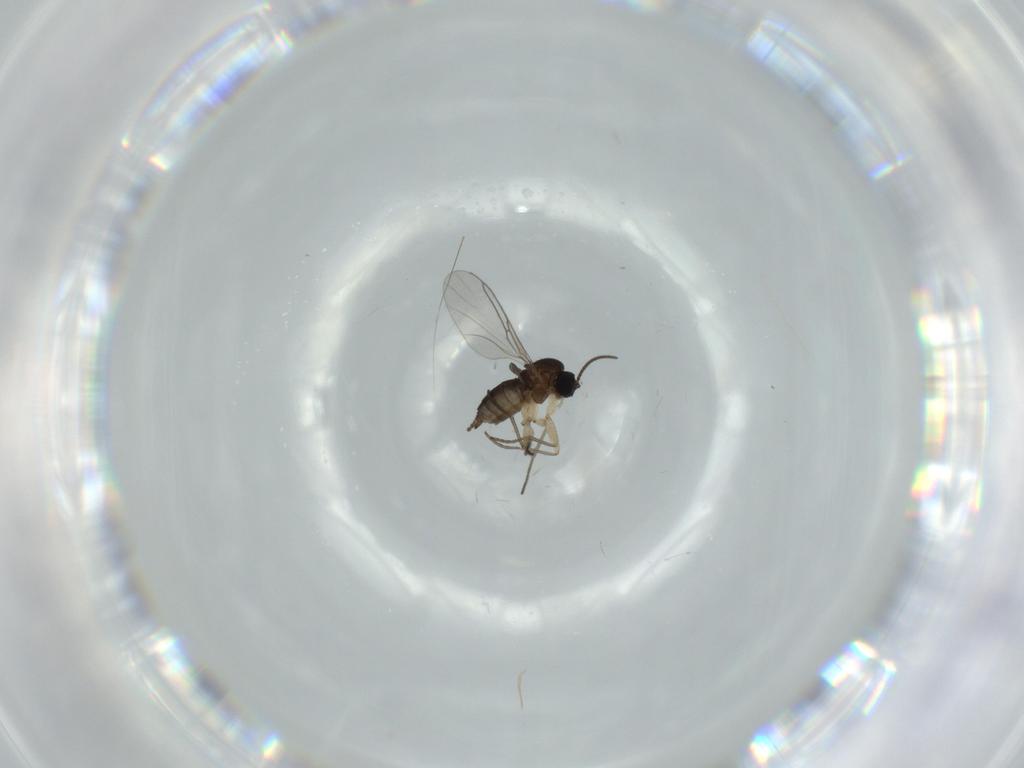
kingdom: Animalia
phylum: Arthropoda
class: Insecta
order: Diptera
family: Sciaridae
